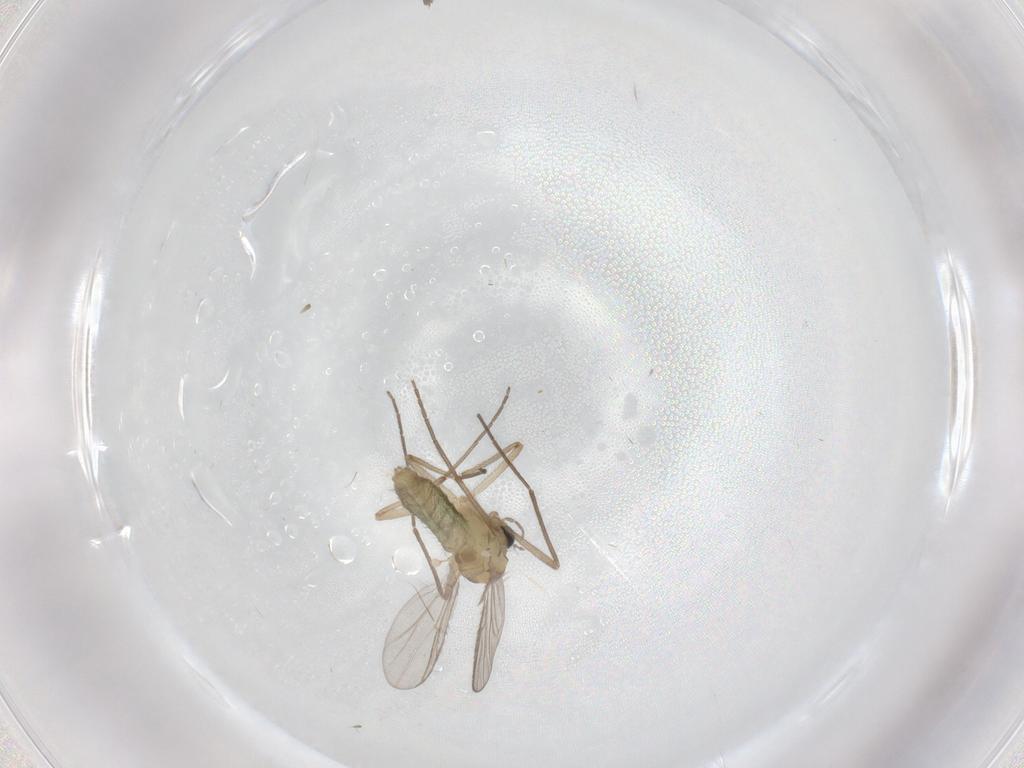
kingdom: Animalia
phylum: Arthropoda
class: Insecta
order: Diptera
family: Chironomidae
